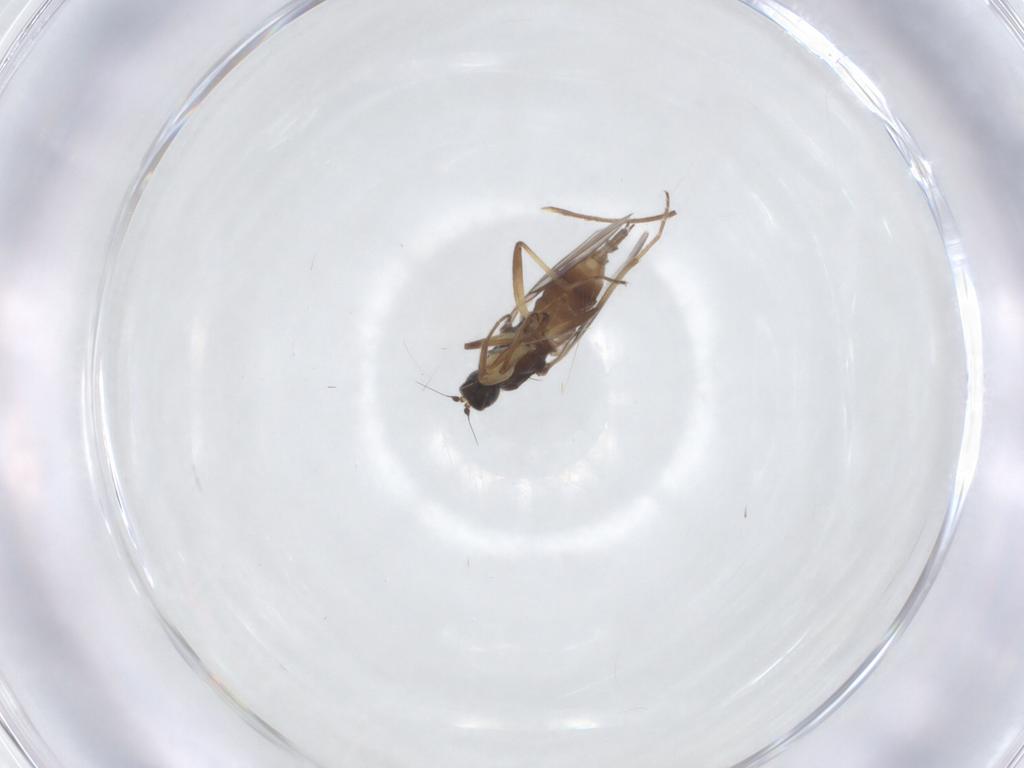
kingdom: Animalia
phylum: Arthropoda
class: Insecta
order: Diptera
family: Hybotidae
